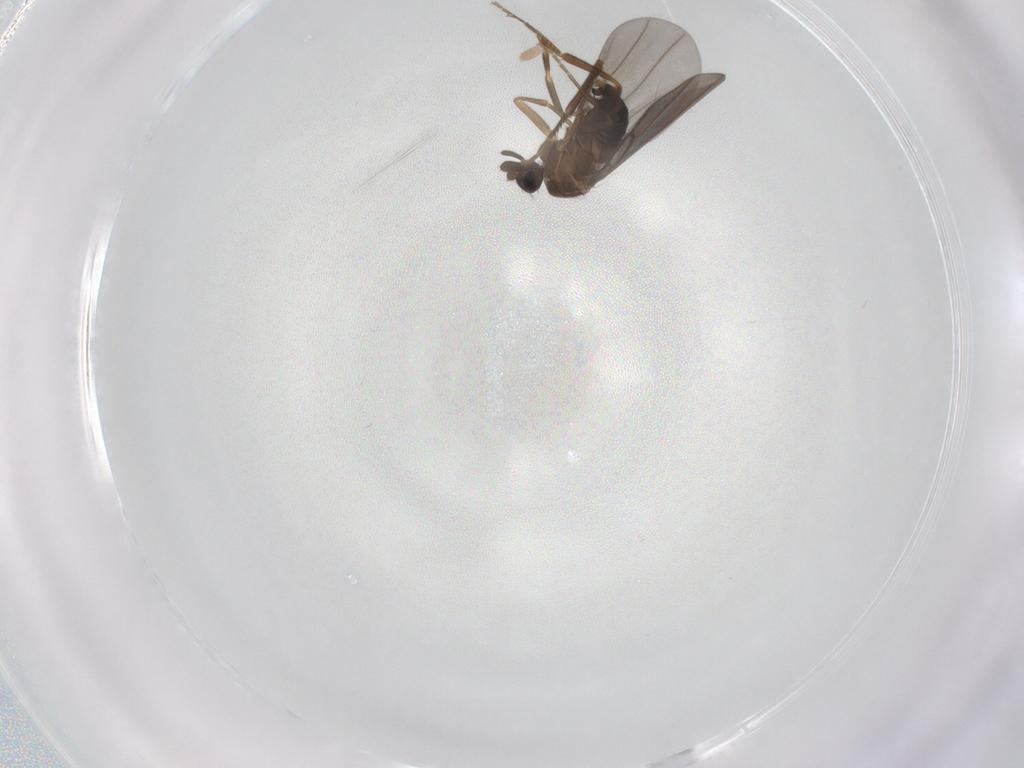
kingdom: Animalia
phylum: Arthropoda
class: Insecta
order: Diptera
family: Phoridae
